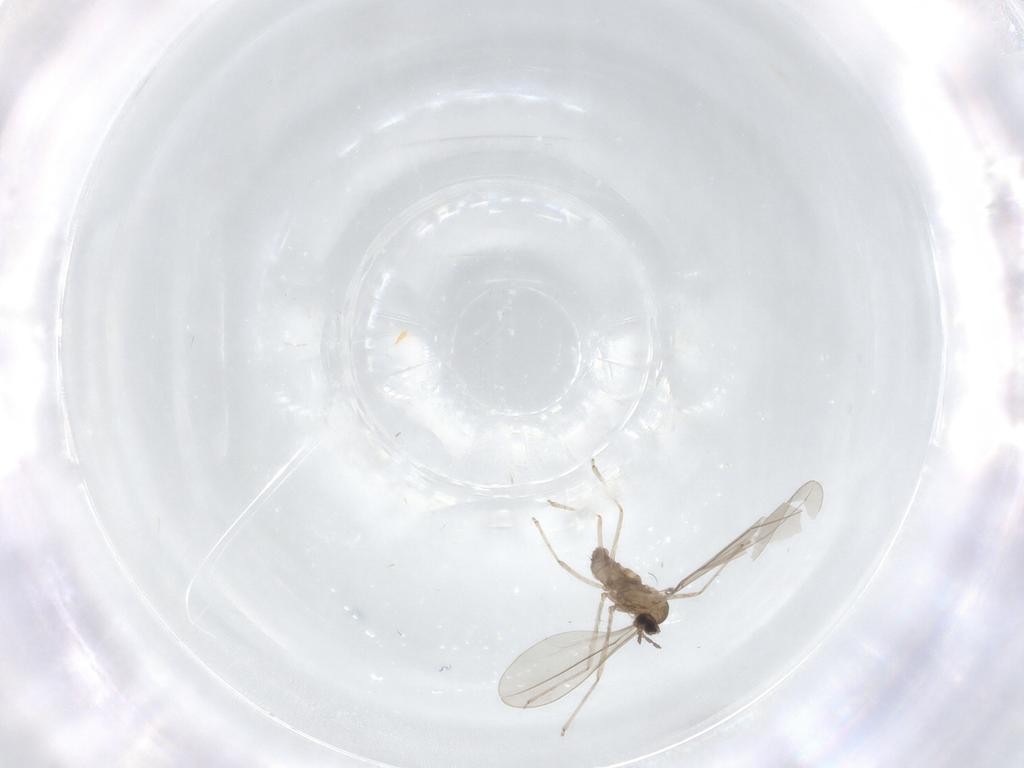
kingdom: Animalia
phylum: Arthropoda
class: Insecta
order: Diptera
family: Cecidomyiidae
